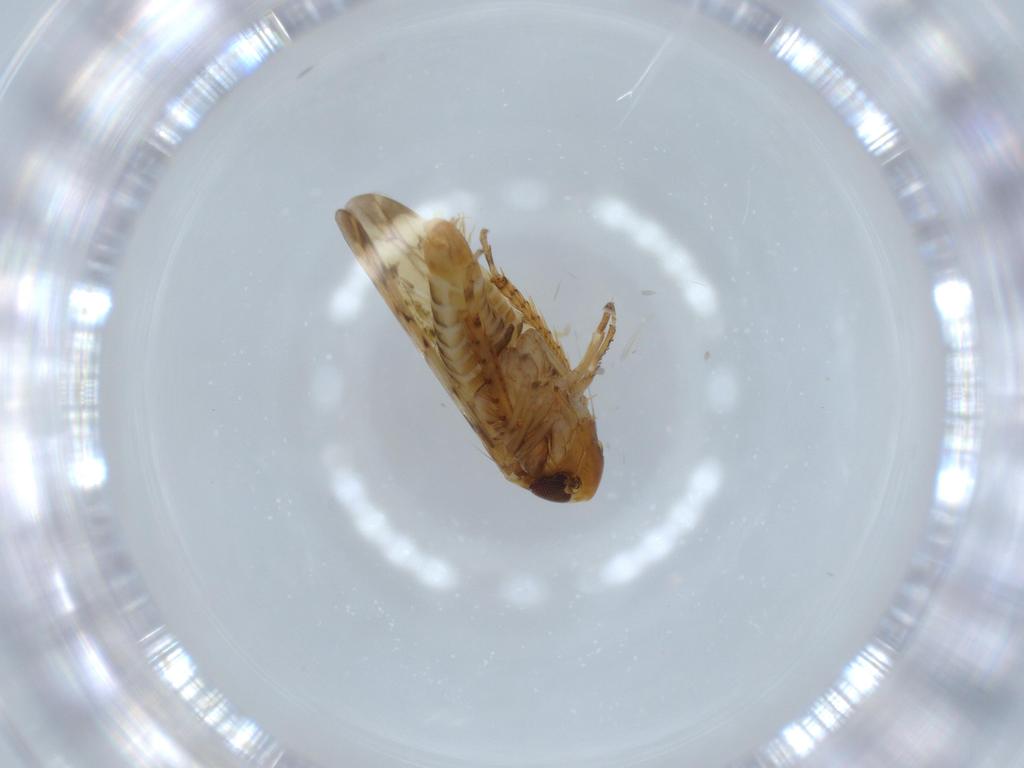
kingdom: Animalia
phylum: Arthropoda
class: Insecta
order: Hemiptera
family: Cicadellidae
